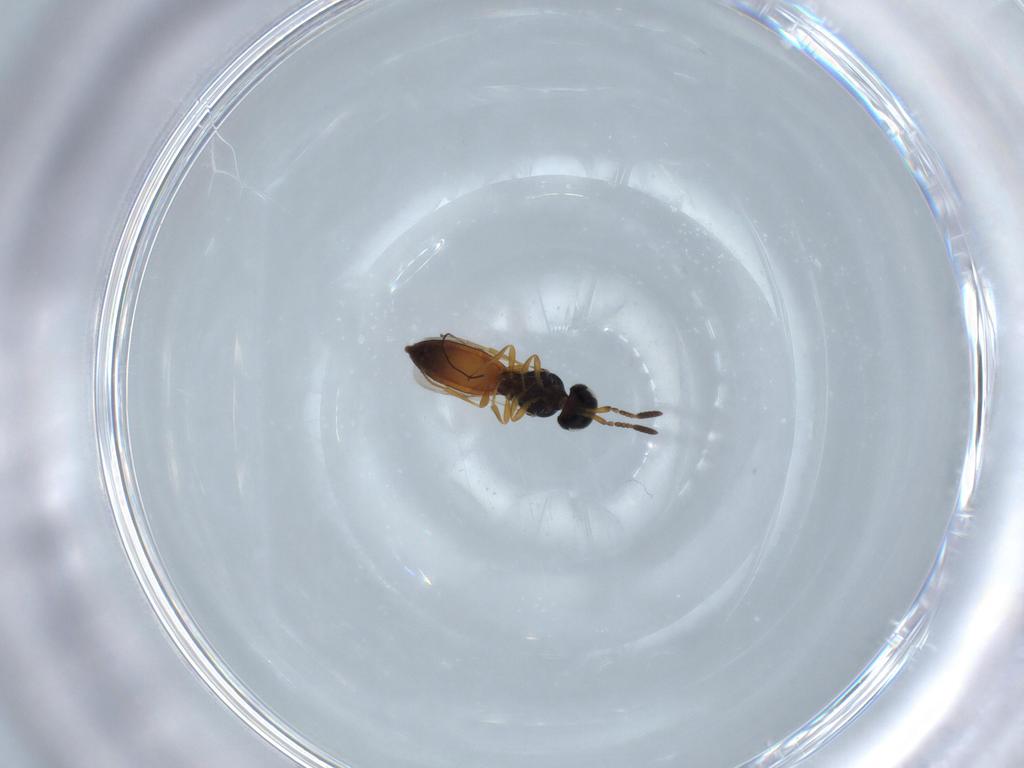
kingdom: Animalia
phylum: Arthropoda
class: Insecta
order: Hymenoptera
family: Scelionidae
